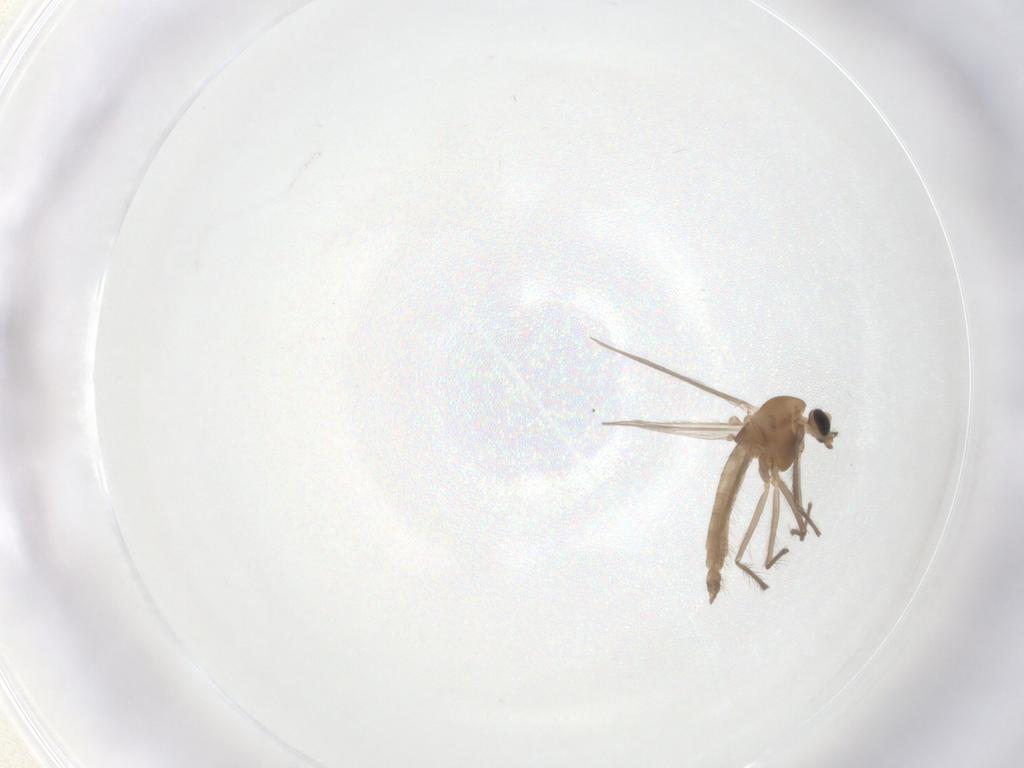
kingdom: Animalia
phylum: Arthropoda
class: Insecta
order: Diptera
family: Chironomidae
